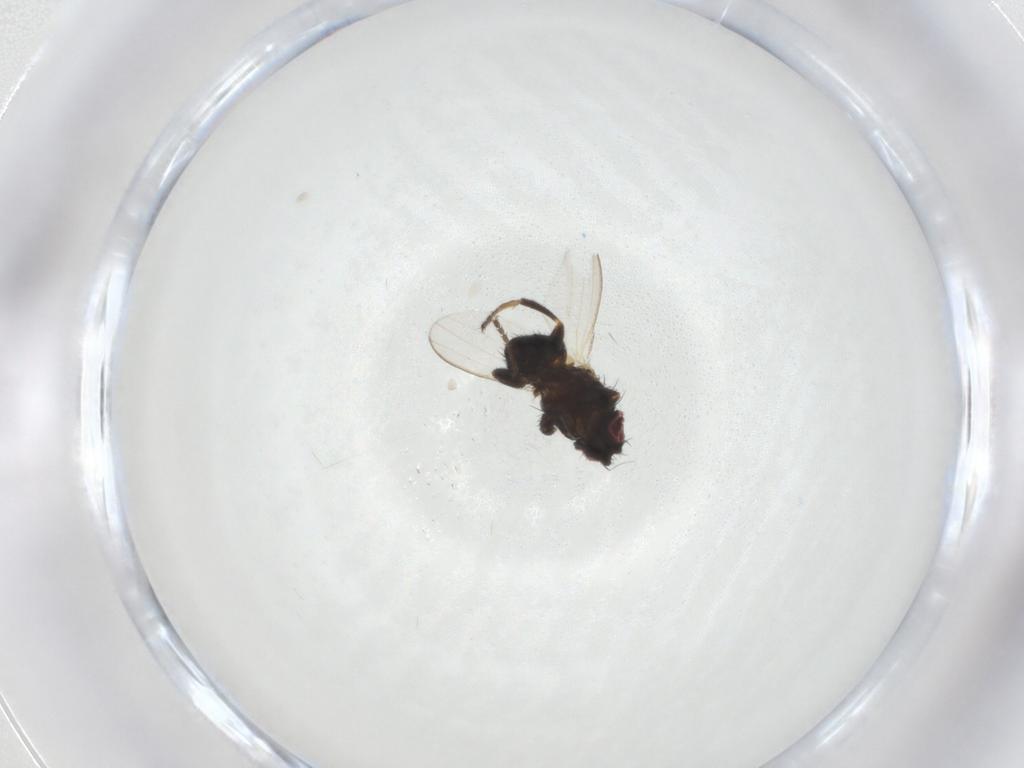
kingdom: Animalia
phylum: Arthropoda
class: Insecta
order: Diptera
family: Milichiidae
